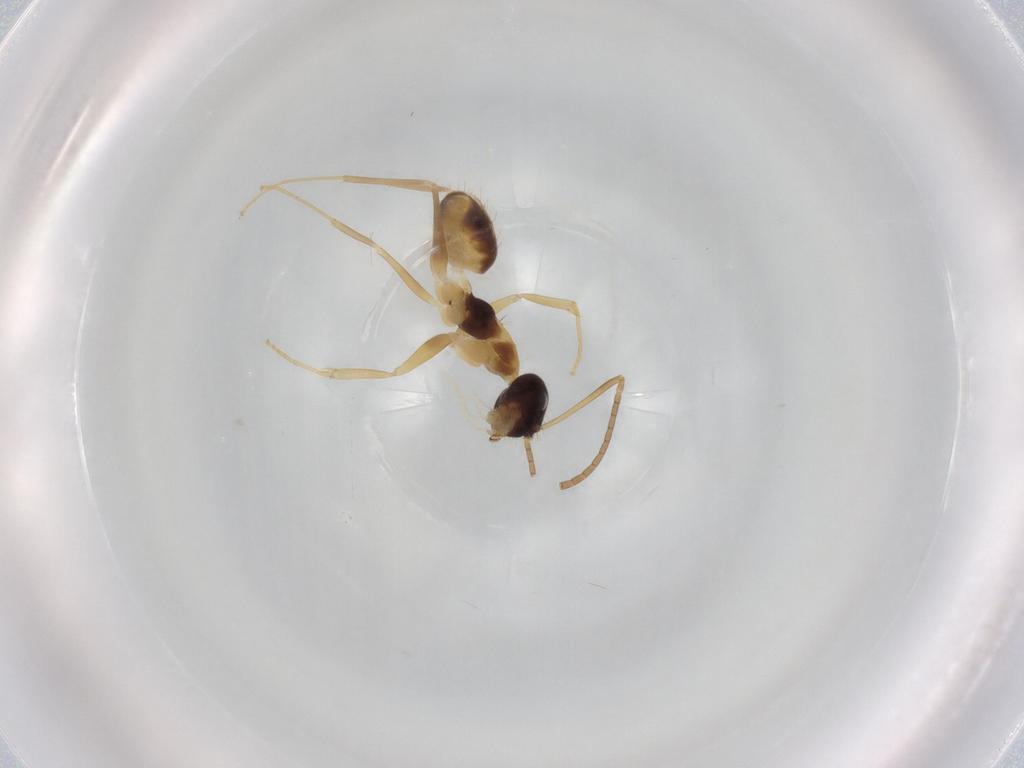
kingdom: Animalia
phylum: Arthropoda
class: Insecta
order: Hymenoptera
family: Formicidae
